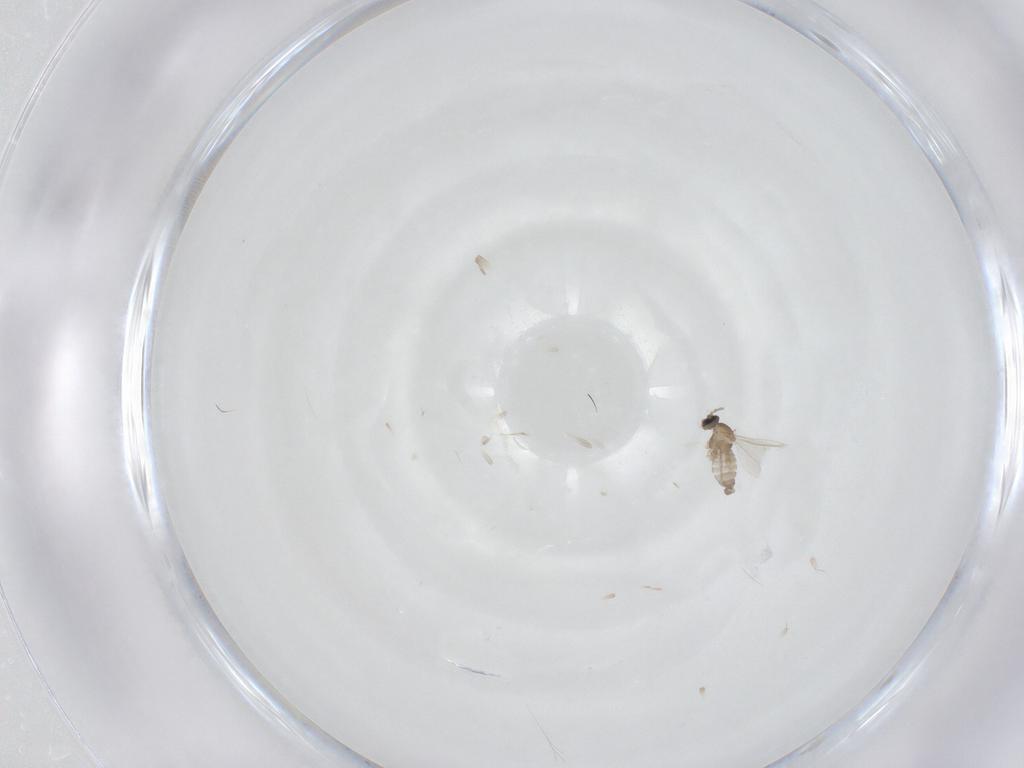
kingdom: Animalia
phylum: Arthropoda
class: Insecta
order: Diptera
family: Cecidomyiidae
